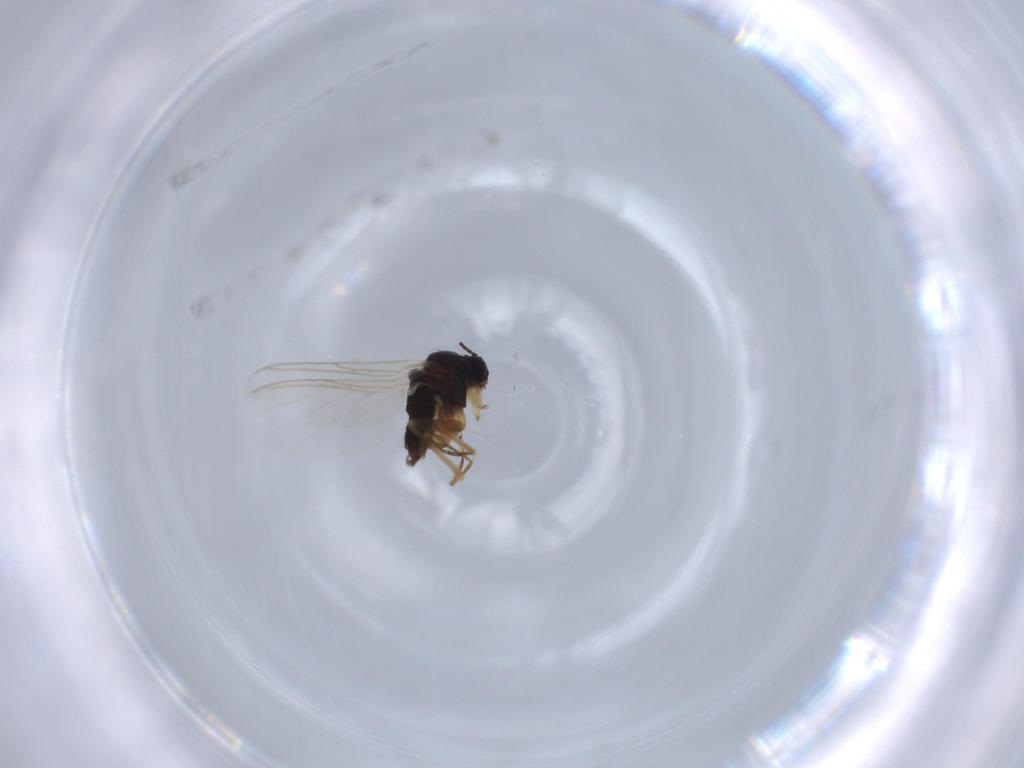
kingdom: Animalia
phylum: Arthropoda
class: Insecta
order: Diptera
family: Sciaridae
